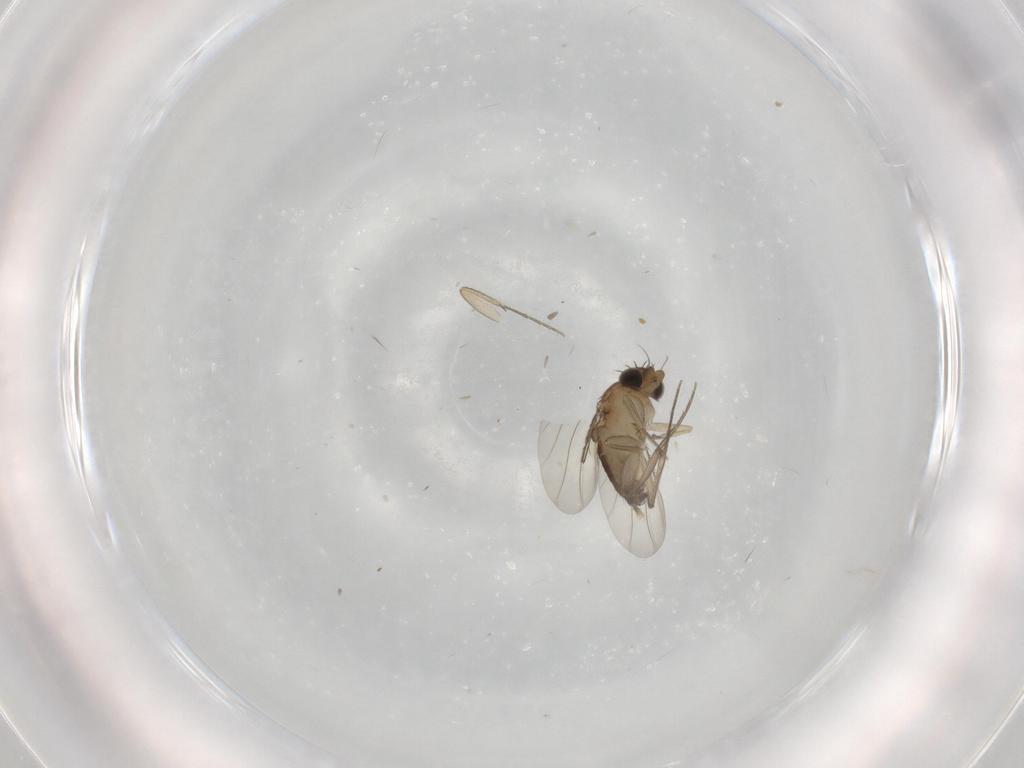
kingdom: Animalia
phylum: Arthropoda
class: Insecta
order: Diptera
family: Phoridae
